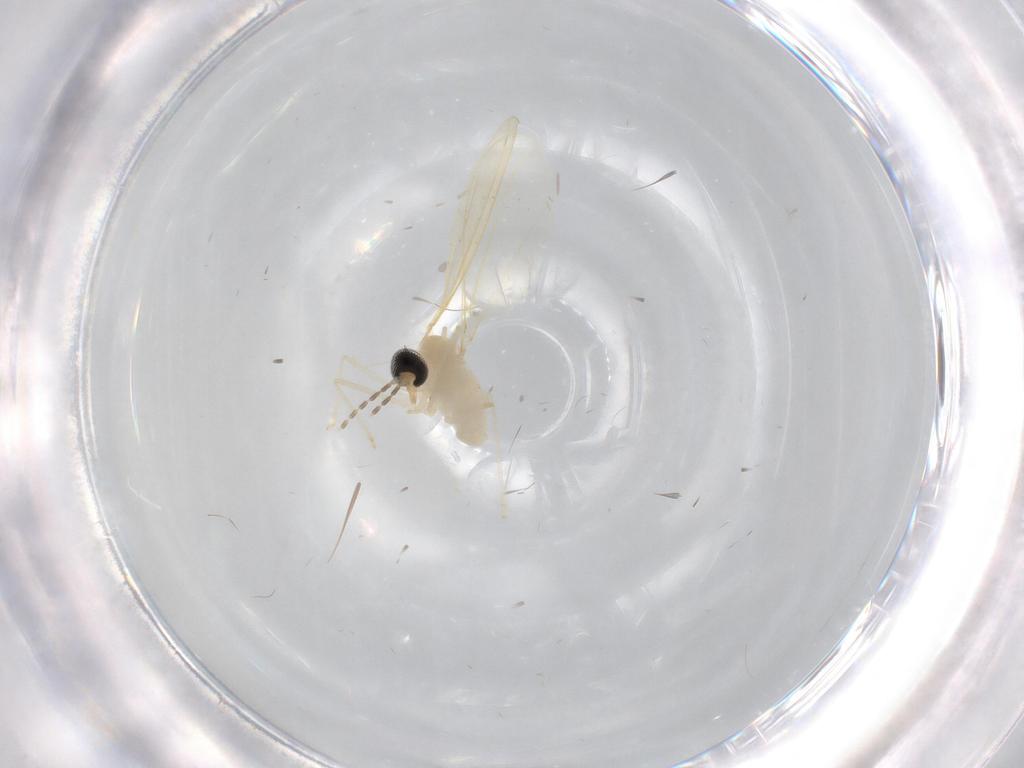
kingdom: Animalia
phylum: Arthropoda
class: Insecta
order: Diptera
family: Cecidomyiidae
